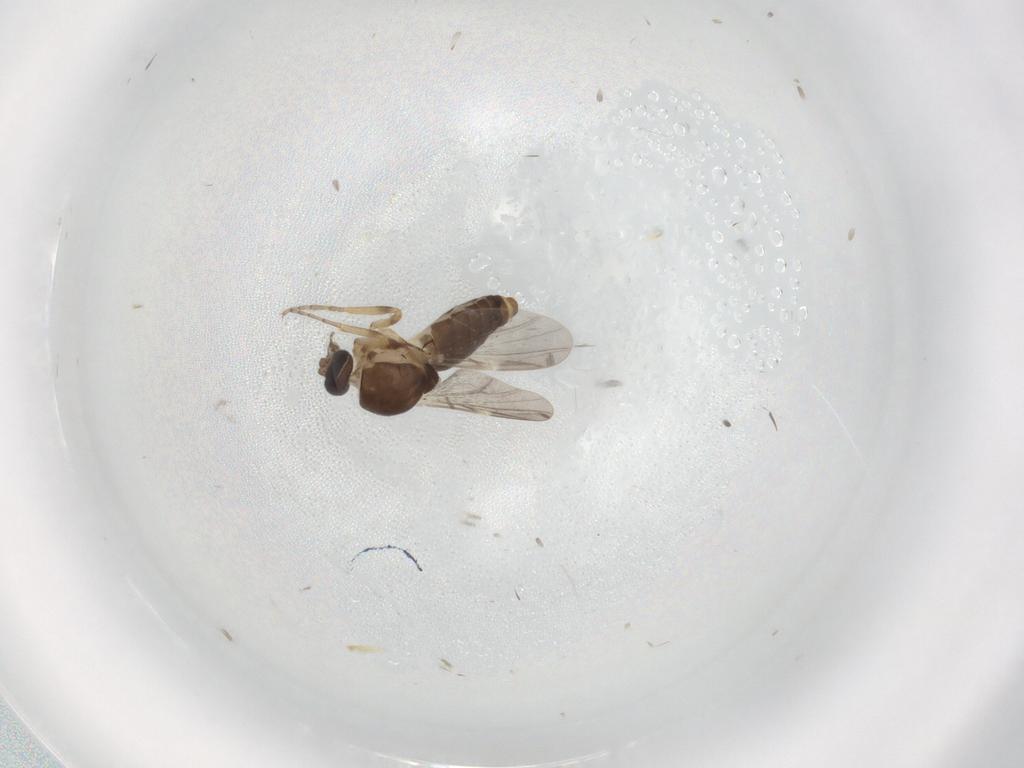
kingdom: Animalia
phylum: Arthropoda
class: Insecta
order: Diptera
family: Ceratopogonidae
